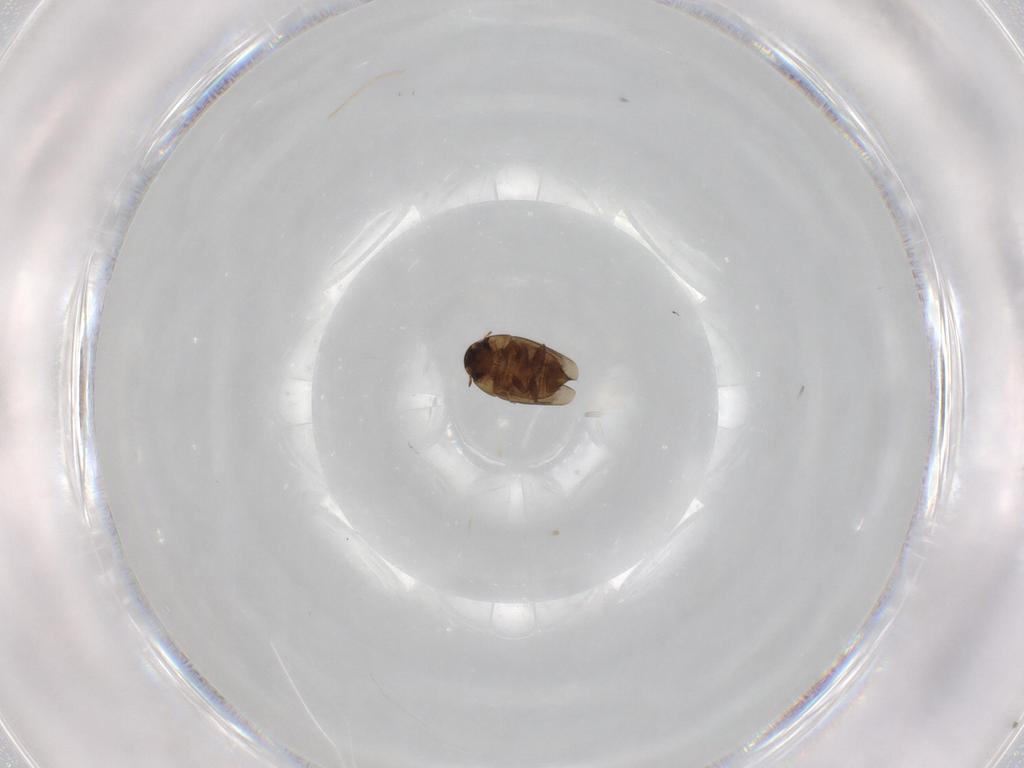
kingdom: Animalia
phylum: Arthropoda
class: Insecta
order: Coleoptera
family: Hydraenidae
